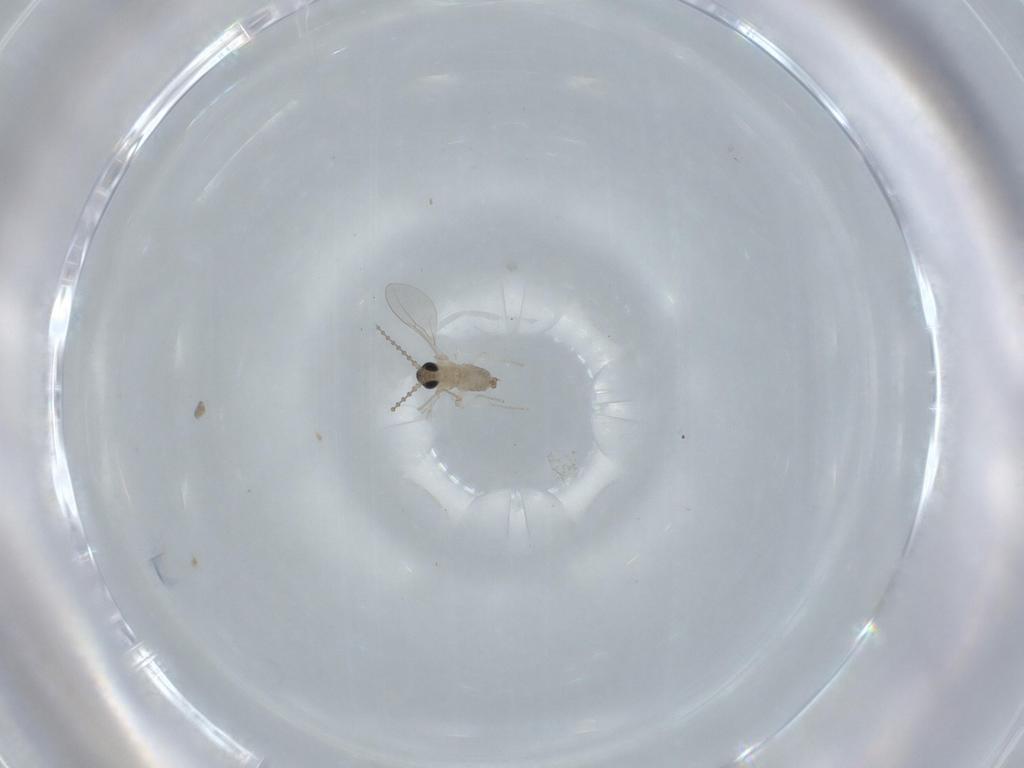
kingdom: Animalia
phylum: Arthropoda
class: Insecta
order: Diptera
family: Cecidomyiidae
